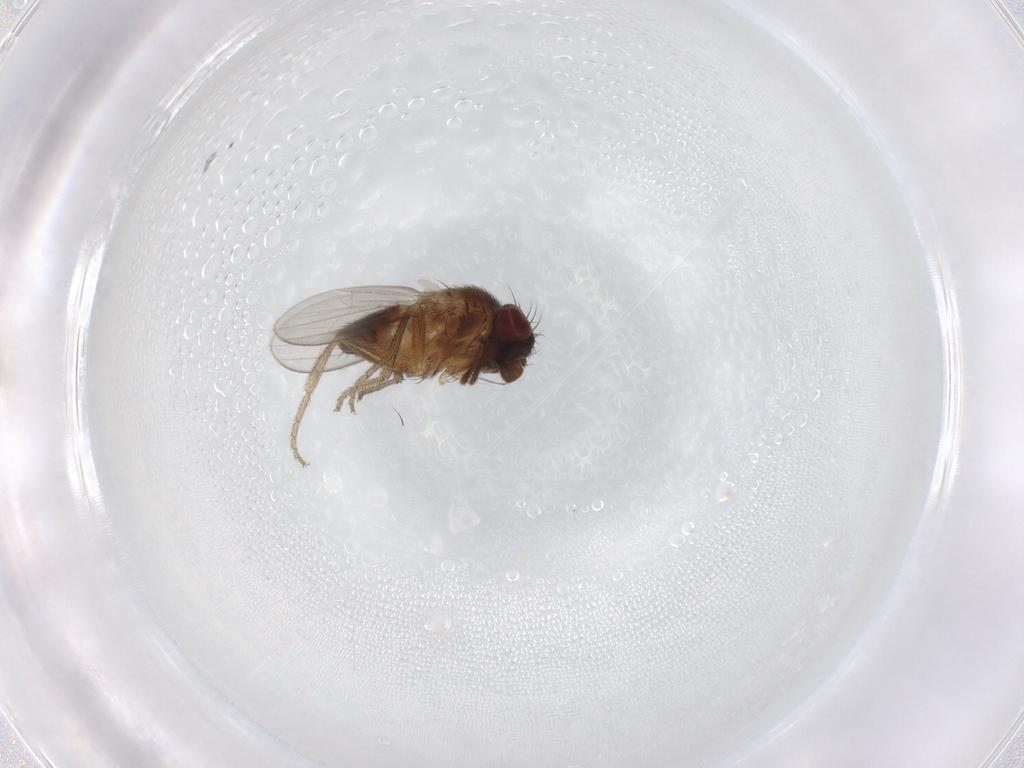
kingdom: Animalia
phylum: Arthropoda
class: Insecta
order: Diptera
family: Milichiidae
